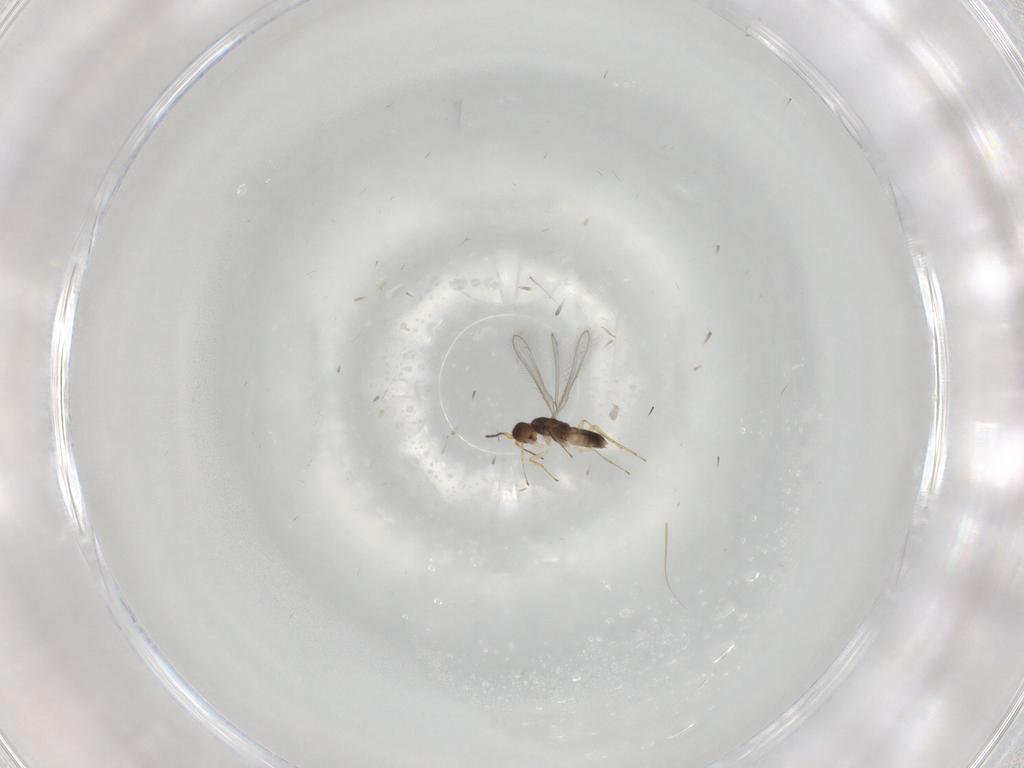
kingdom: Animalia
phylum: Arthropoda
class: Insecta
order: Hymenoptera
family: Mymaridae
